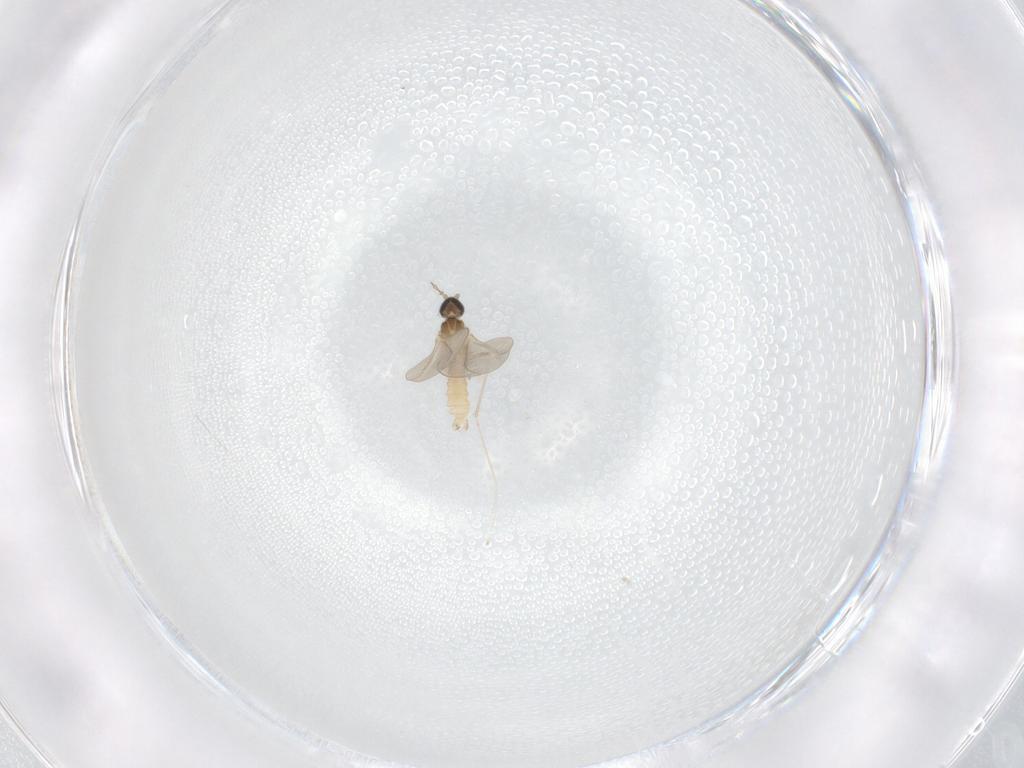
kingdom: Animalia
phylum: Arthropoda
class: Insecta
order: Diptera
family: Cecidomyiidae
